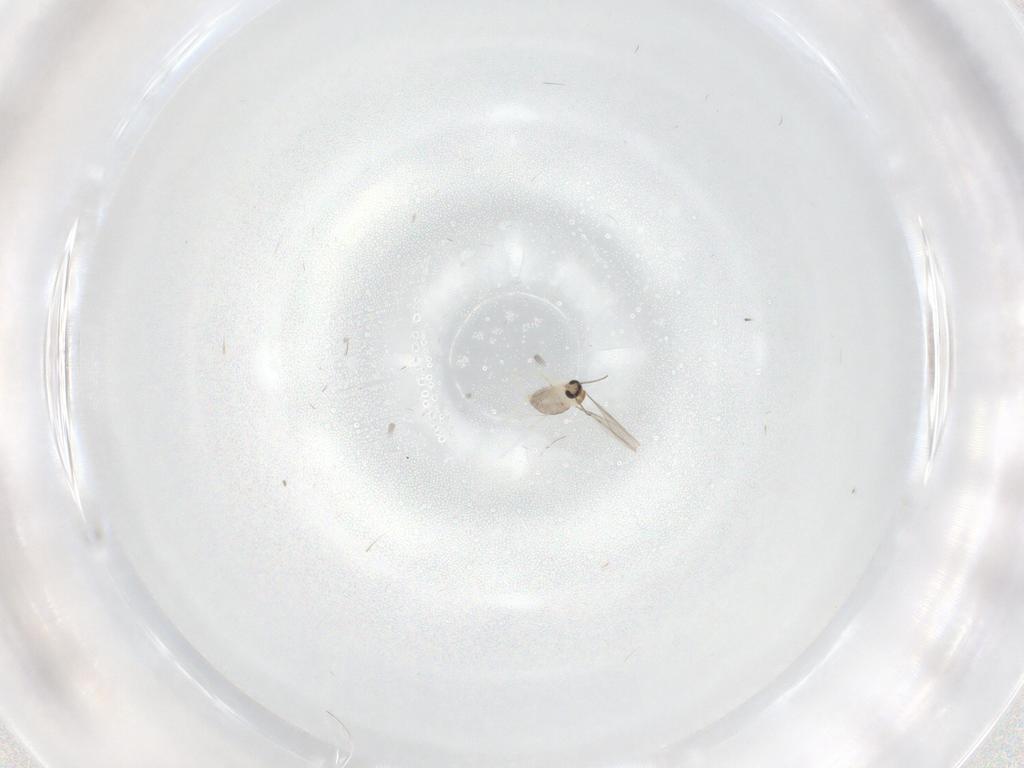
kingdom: Animalia
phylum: Arthropoda
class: Insecta
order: Diptera
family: Cecidomyiidae
